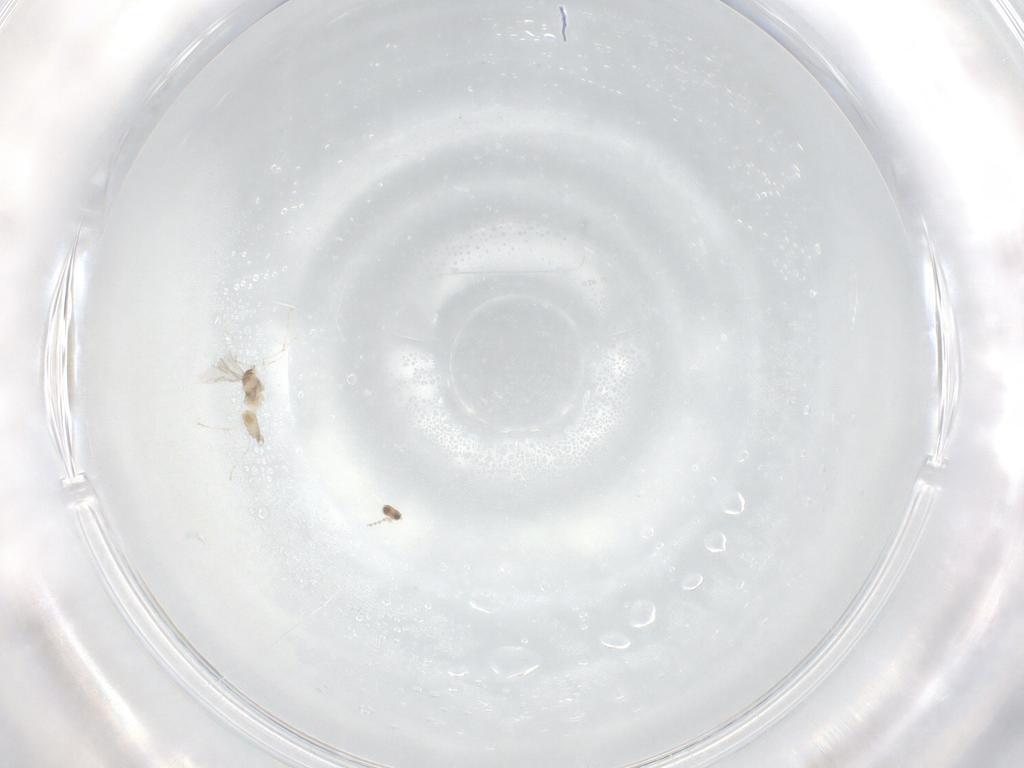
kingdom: Animalia
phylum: Arthropoda
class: Insecta
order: Diptera
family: Cecidomyiidae
